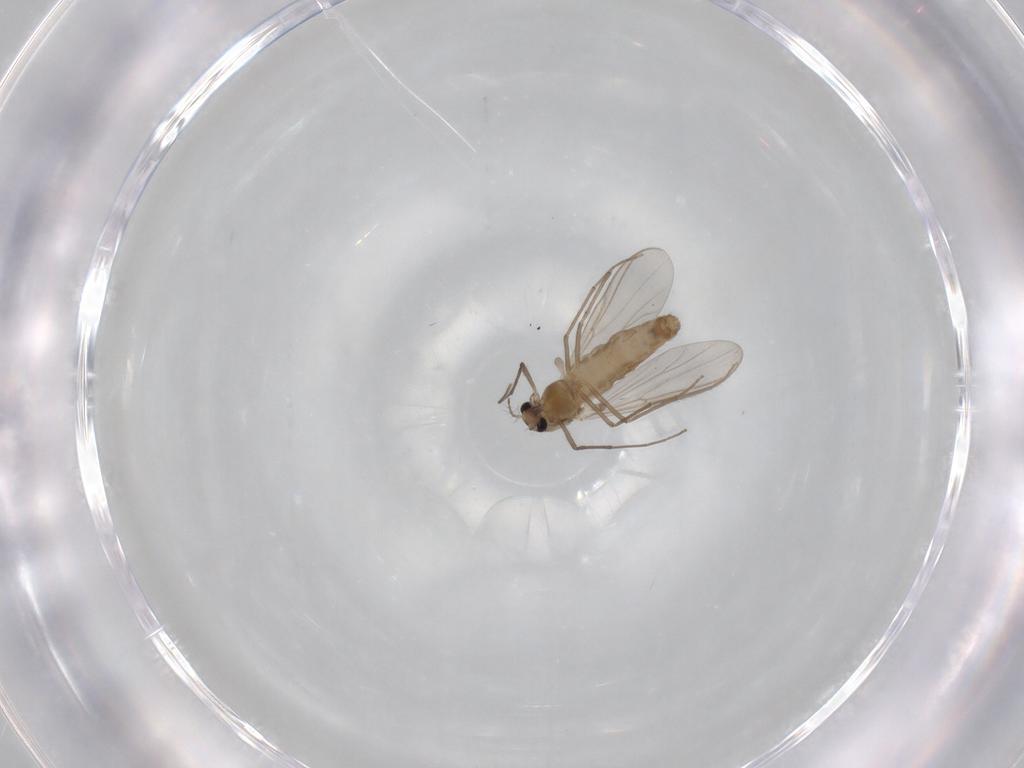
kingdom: Animalia
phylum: Arthropoda
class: Insecta
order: Diptera
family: Chironomidae
